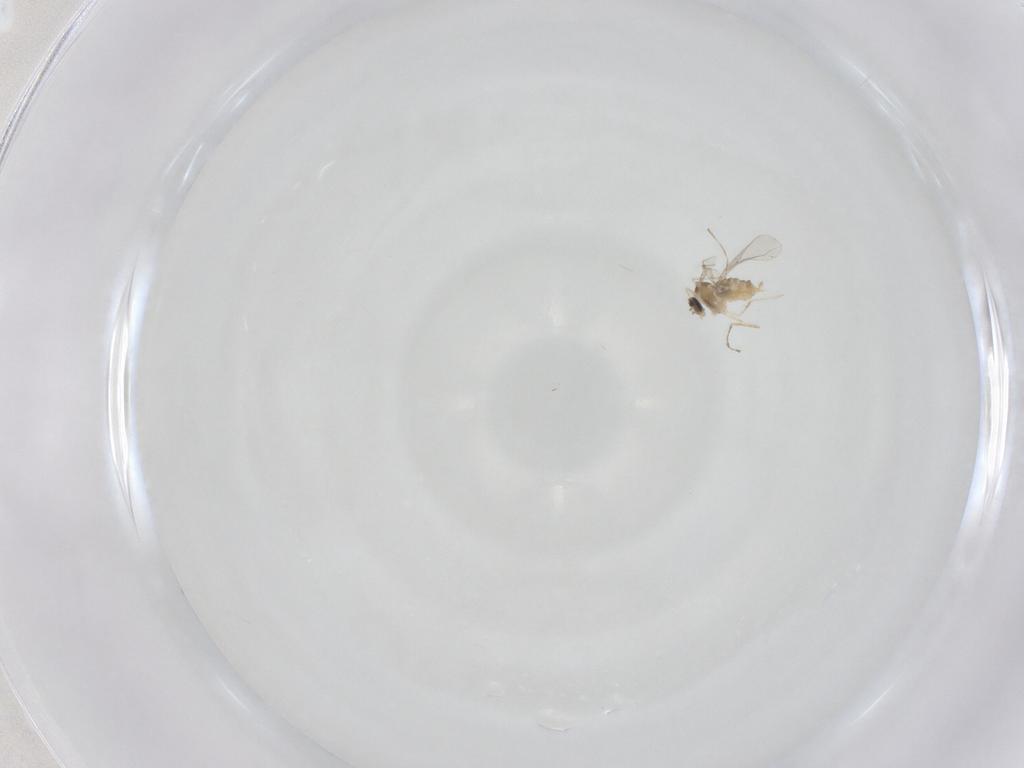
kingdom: Animalia
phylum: Arthropoda
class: Insecta
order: Diptera
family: Cecidomyiidae
